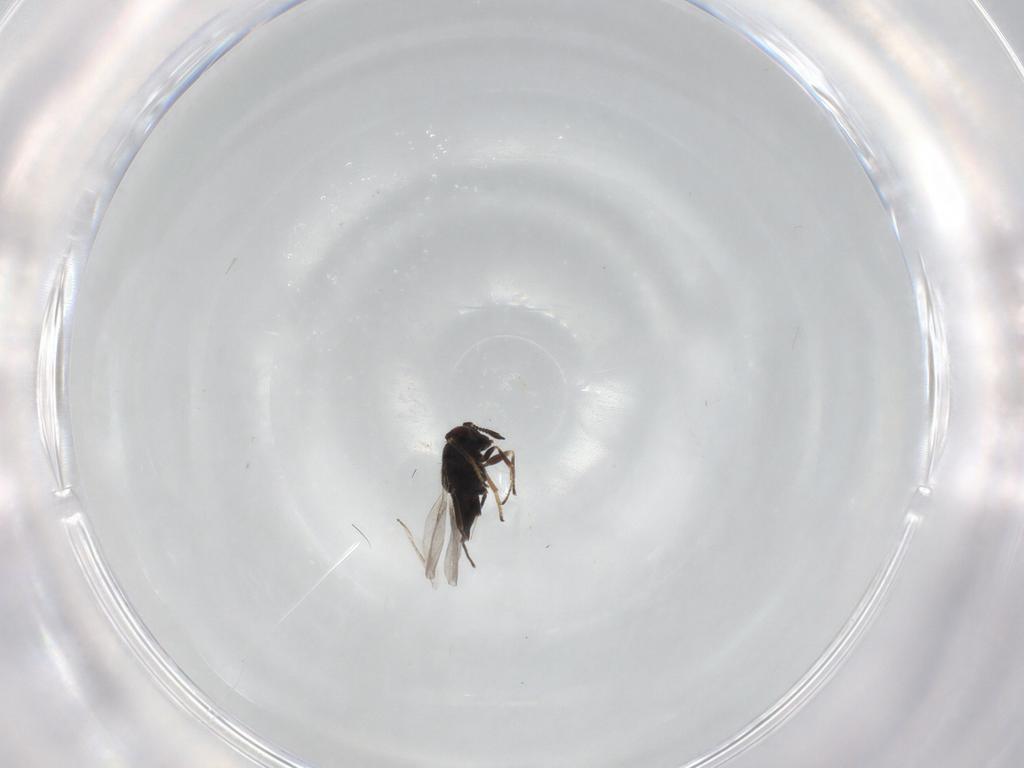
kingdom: Animalia
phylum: Arthropoda
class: Insecta
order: Hymenoptera
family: Encyrtidae
